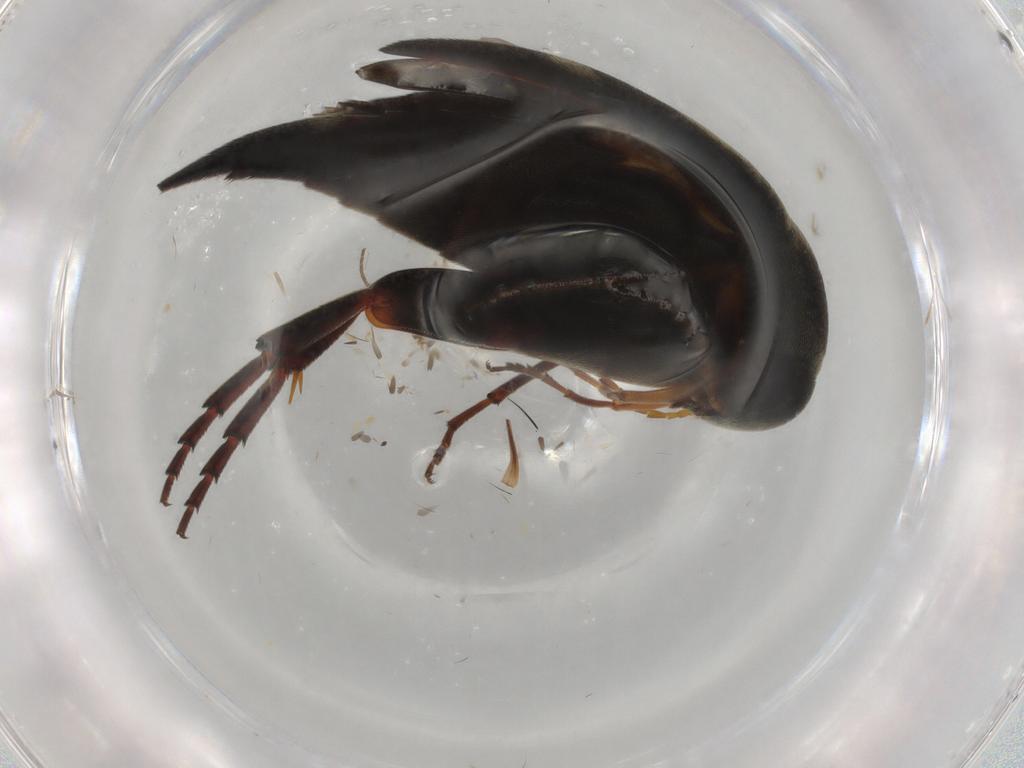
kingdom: Animalia
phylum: Arthropoda
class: Insecta
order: Coleoptera
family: Mordellidae
